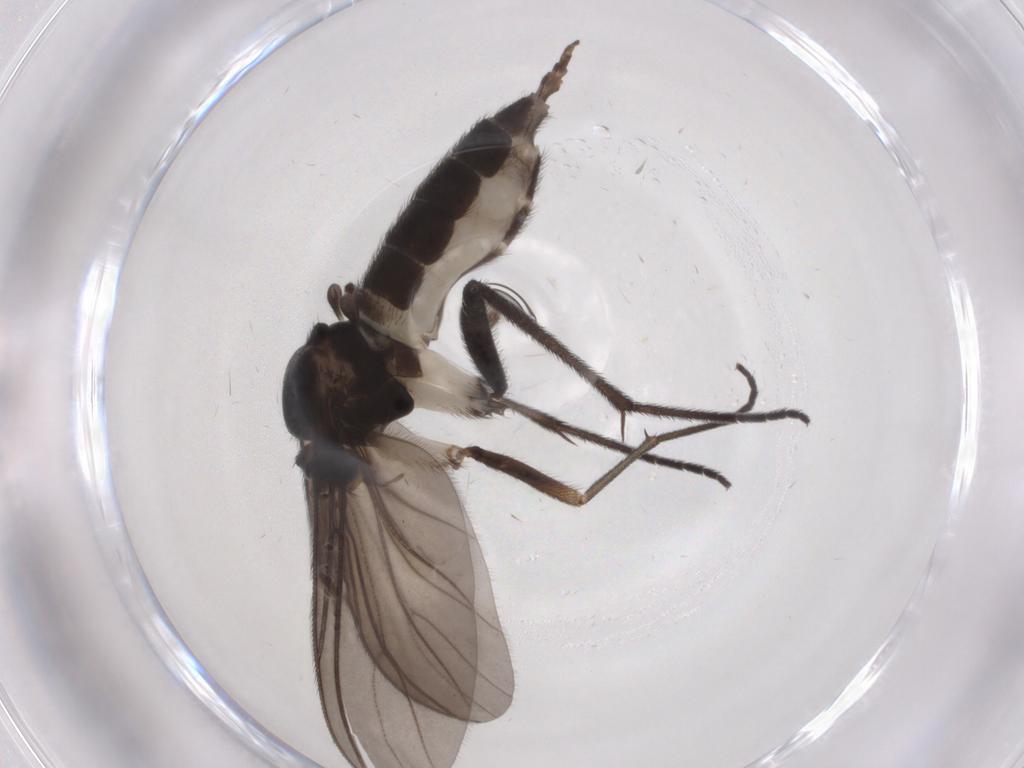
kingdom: Animalia
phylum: Arthropoda
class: Insecta
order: Diptera
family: Sciaridae
